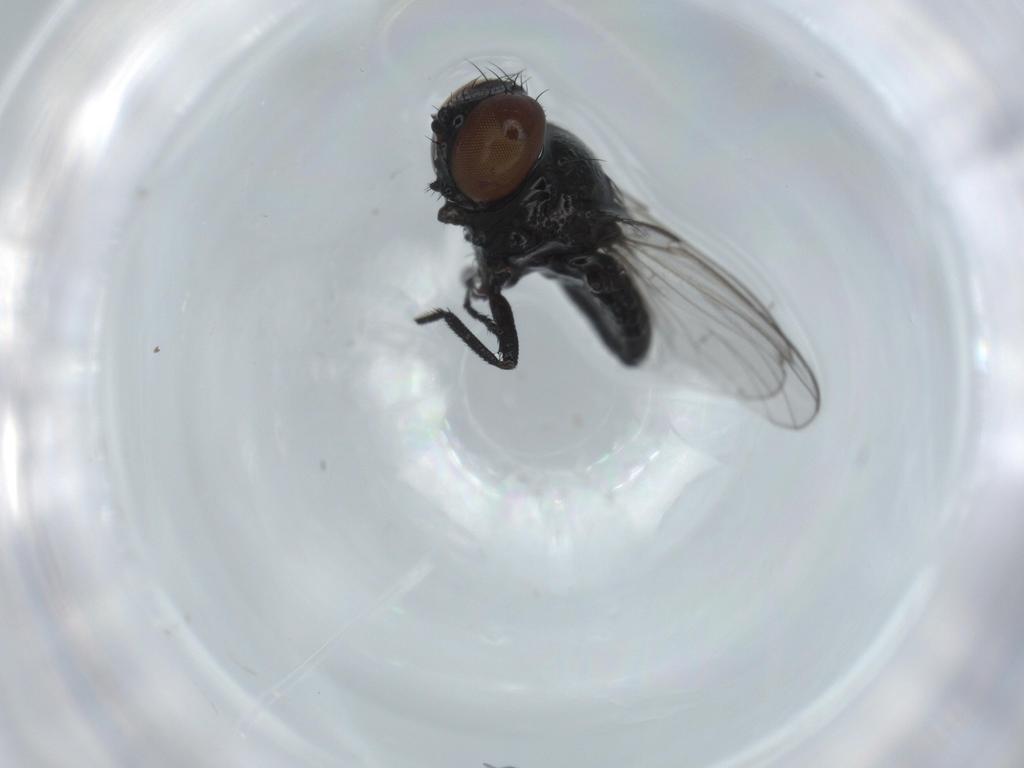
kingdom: Animalia
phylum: Arthropoda
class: Insecta
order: Diptera
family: Milichiidae
